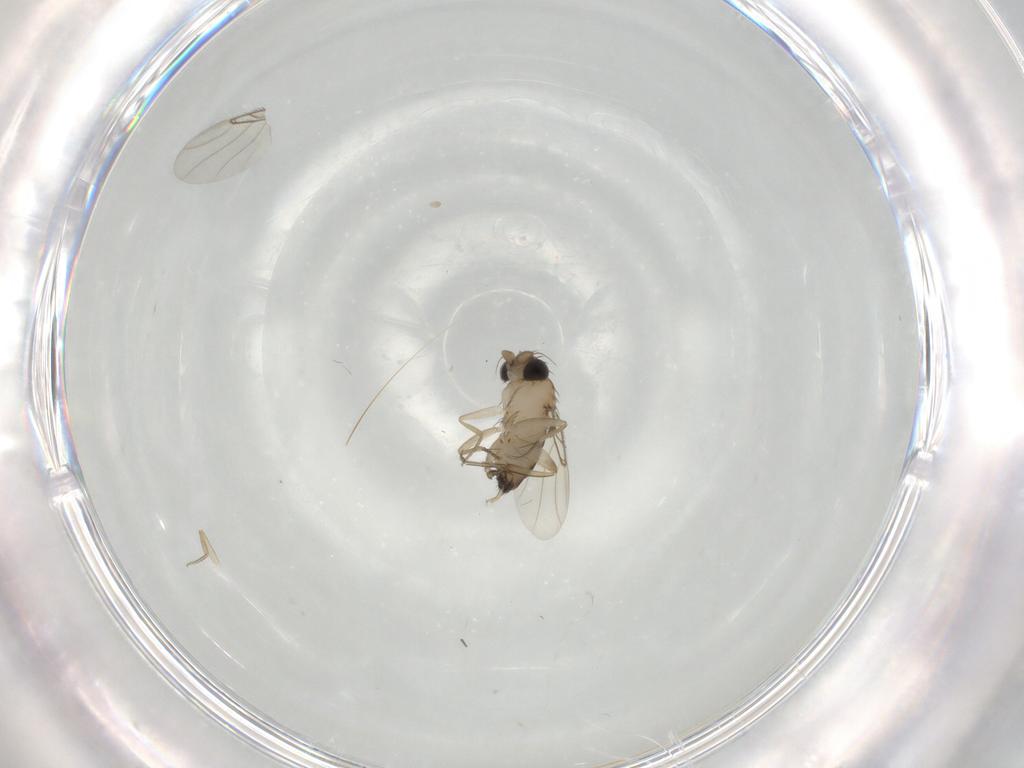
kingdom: Animalia
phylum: Arthropoda
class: Insecta
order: Diptera
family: Phoridae
